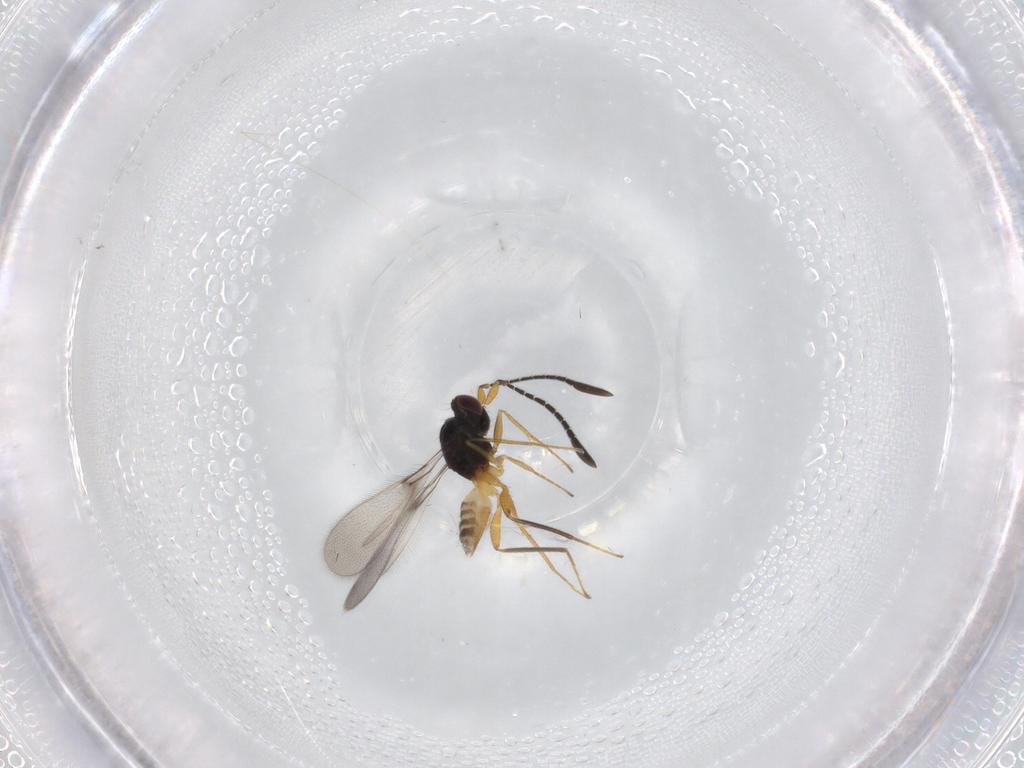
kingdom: Animalia
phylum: Arthropoda
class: Insecta
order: Hymenoptera
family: Mymaridae
